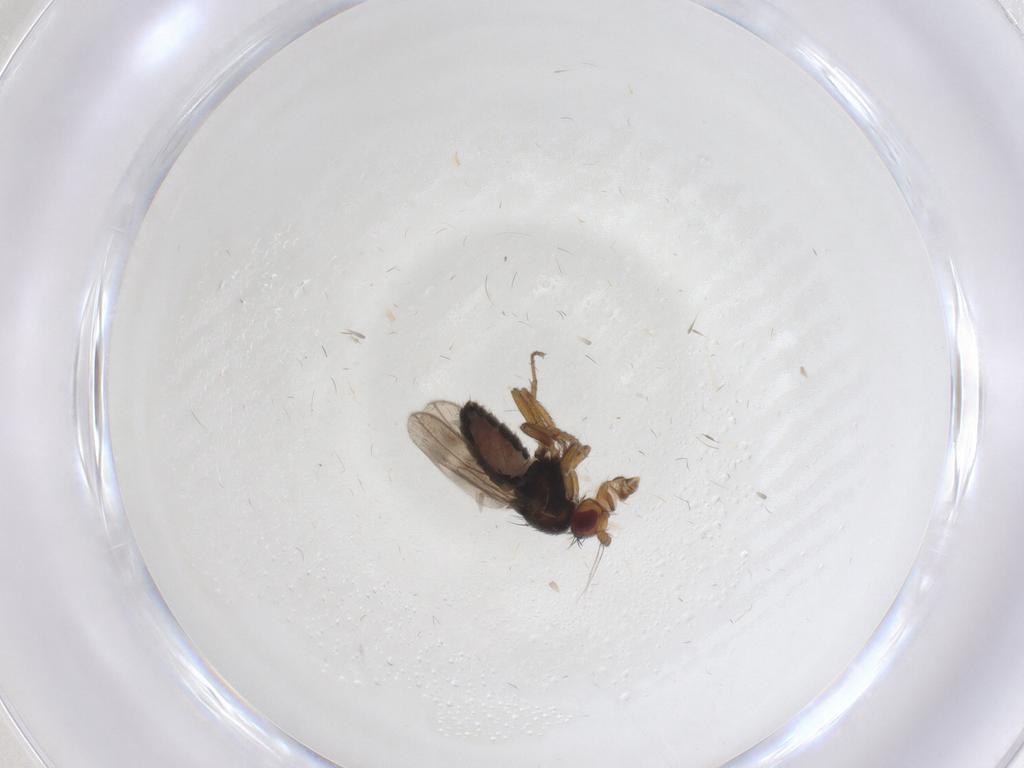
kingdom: Animalia
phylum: Arthropoda
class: Insecta
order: Diptera
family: Sphaeroceridae
